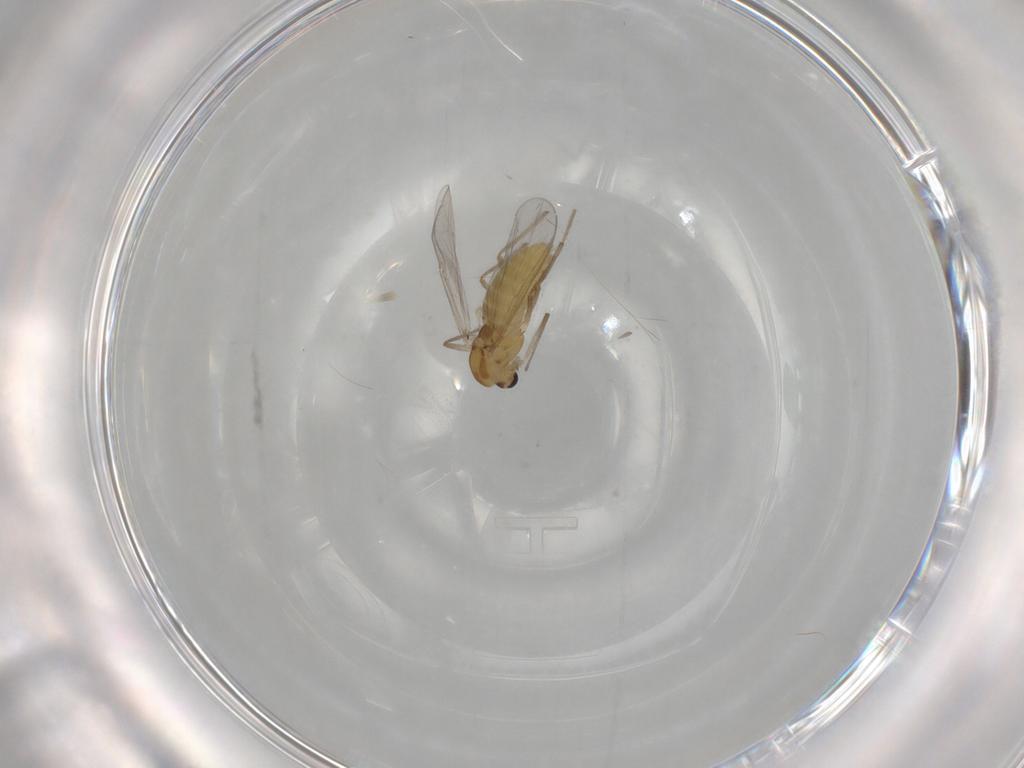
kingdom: Animalia
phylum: Arthropoda
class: Insecta
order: Diptera
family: Chironomidae
